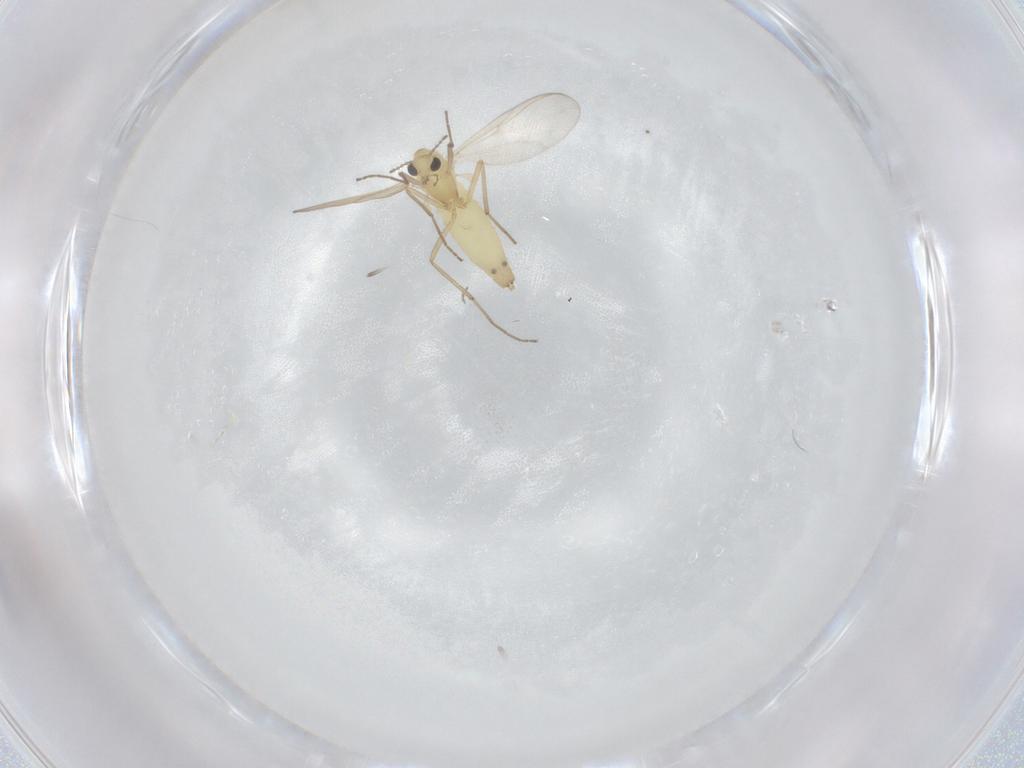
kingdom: Animalia
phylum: Arthropoda
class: Insecta
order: Diptera
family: Chironomidae
